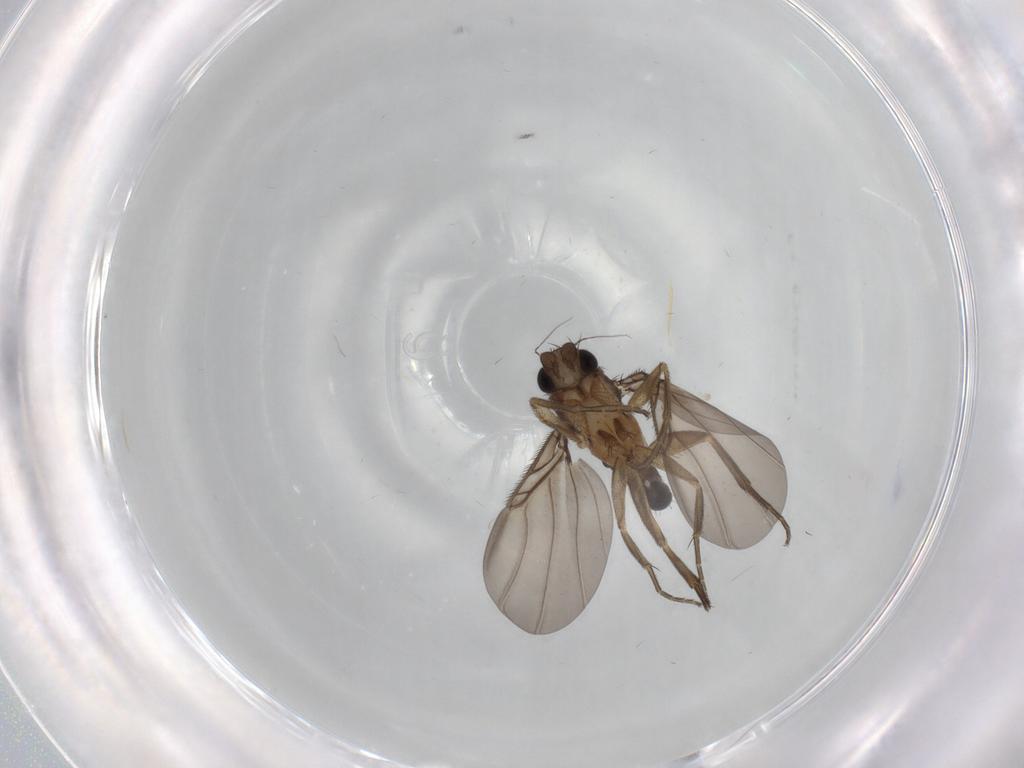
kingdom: Animalia
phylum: Arthropoda
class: Insecta
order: Diptera
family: Phoridae
